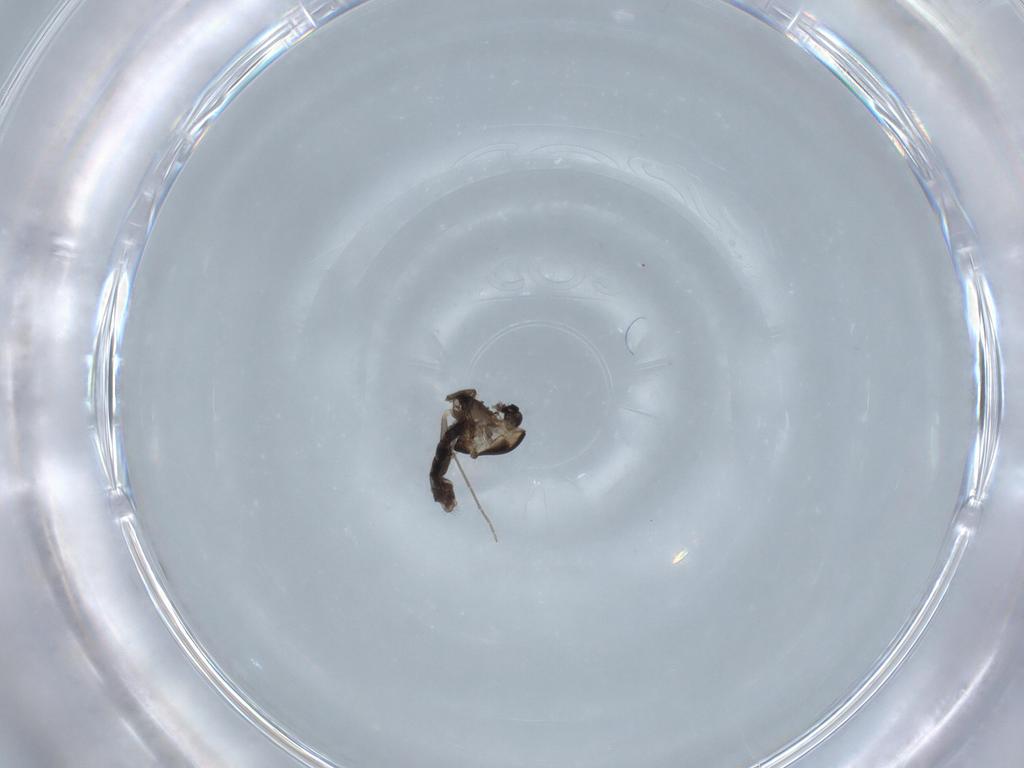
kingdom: Animalia
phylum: Arthropoda
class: Insecta
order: Diptera
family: Chironomidae
